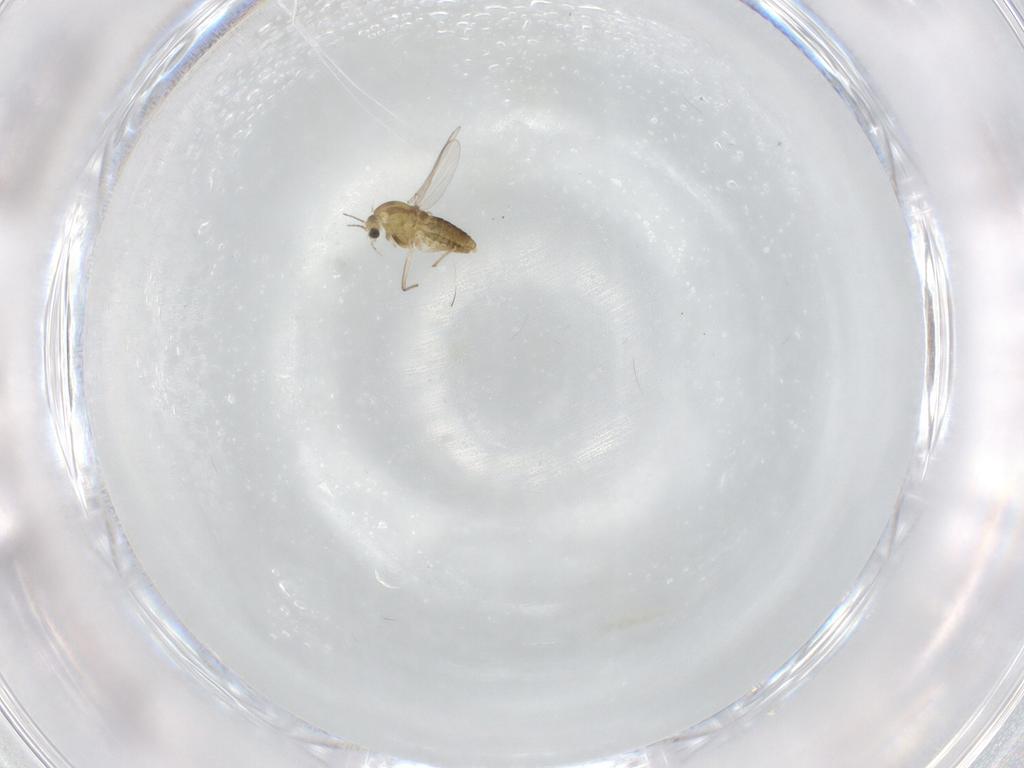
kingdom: Animalia
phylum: Arthropoda
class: Insecta
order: Diptera
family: Chironomidae
